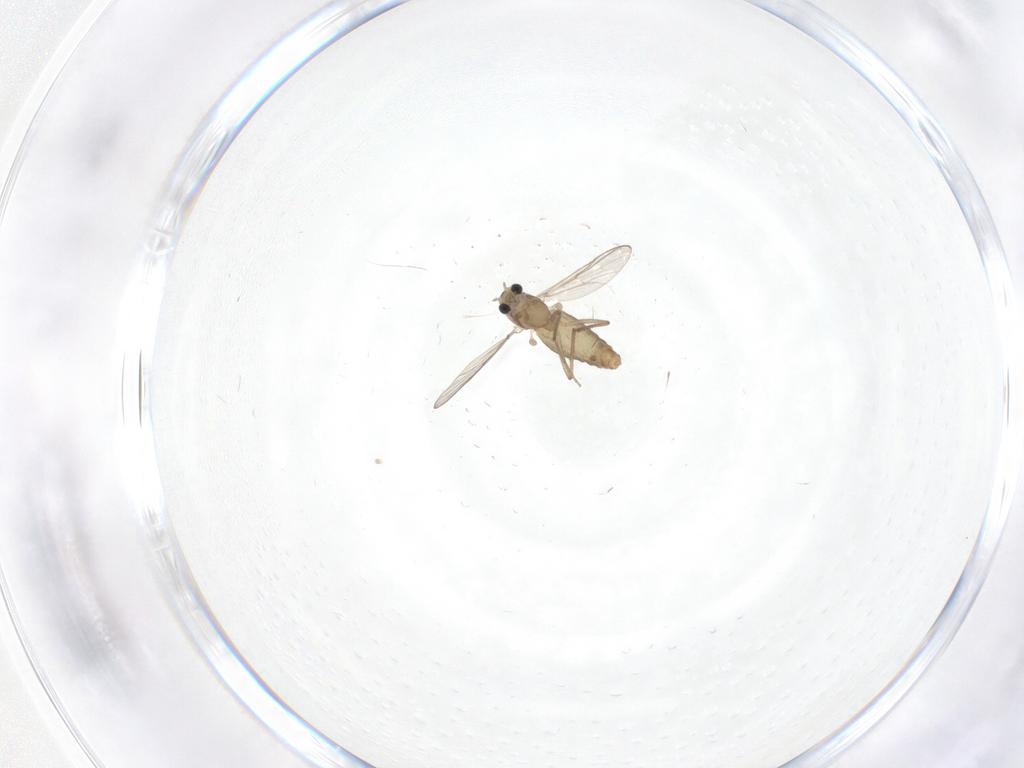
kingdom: Animalia
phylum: Arthropoda
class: Insecta
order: Diptera
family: Chironomidae
